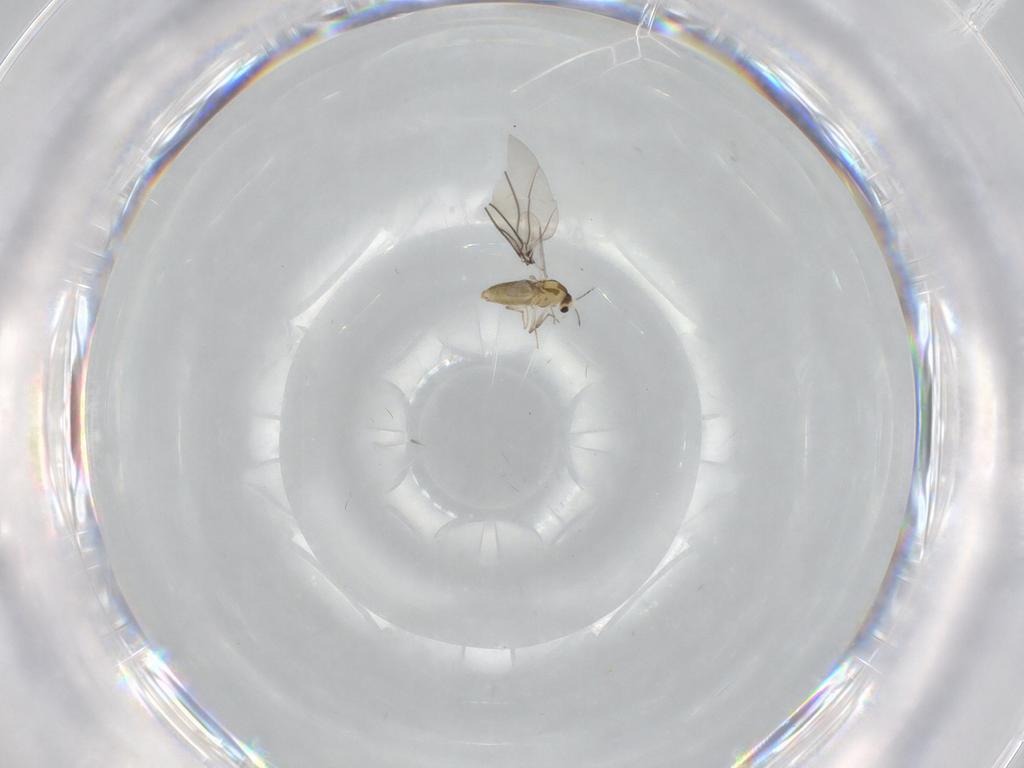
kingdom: Animalia
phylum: Arthropoda
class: Insecta
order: Diptera
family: Chironomidae
